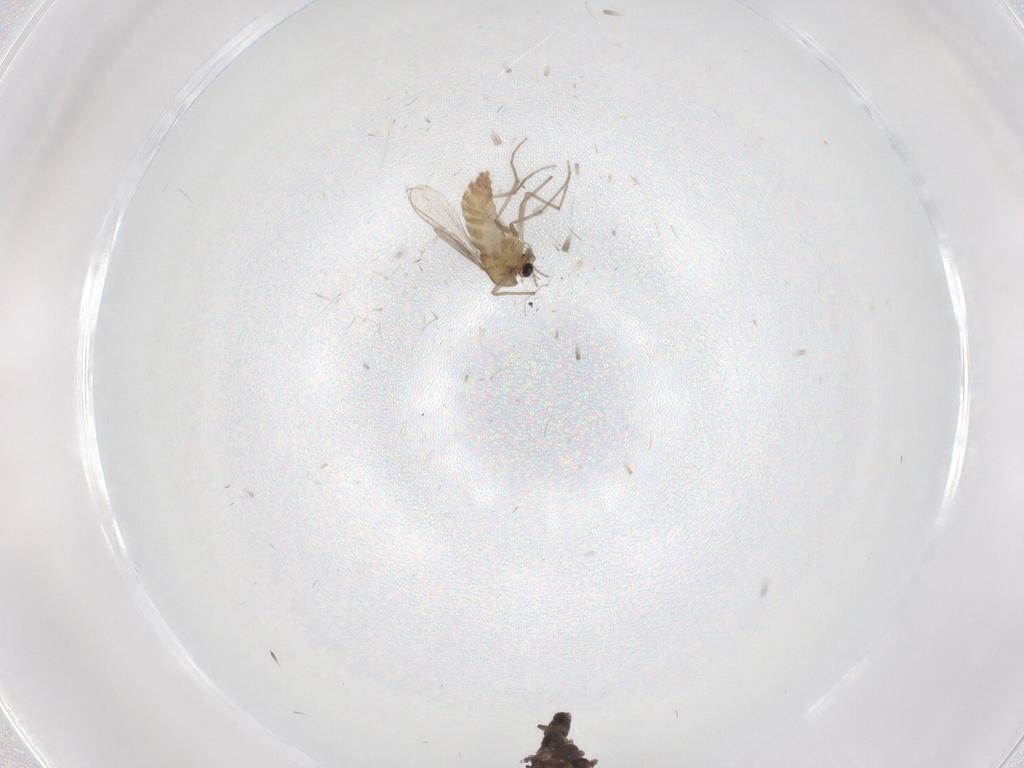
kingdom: Animalia
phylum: Arthropoda
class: Insecta
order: Diptera
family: Chironomidae
